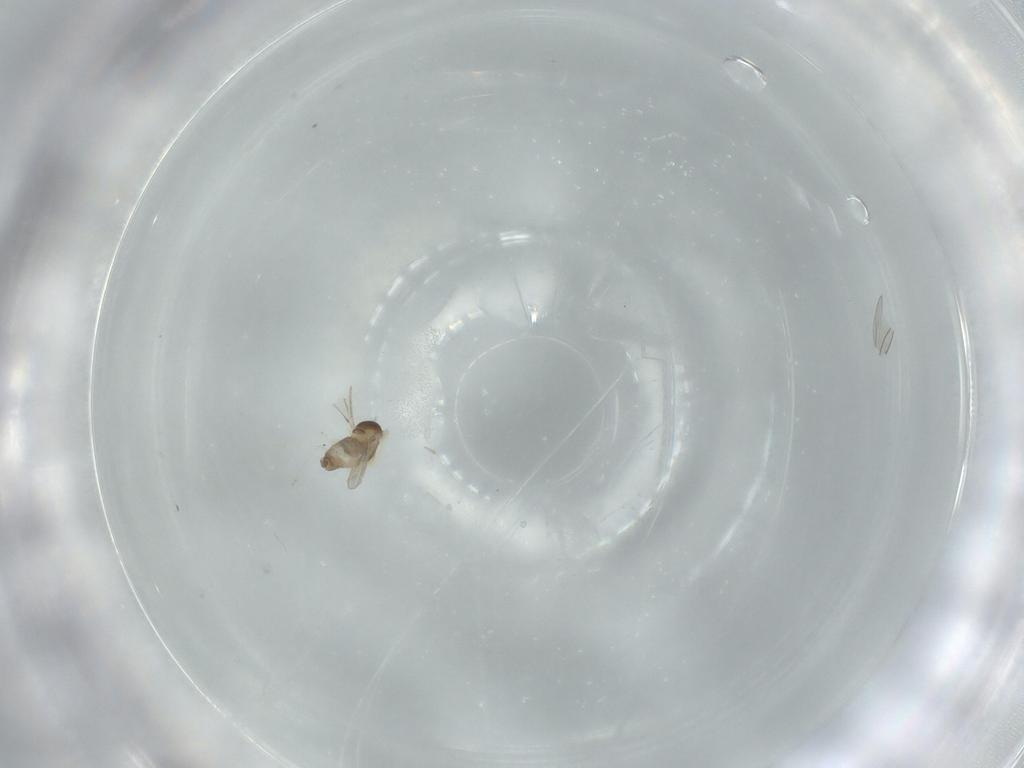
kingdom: Animalia
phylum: Arthropoda
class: Insecta
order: Diptera
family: Cecidomyiidae
